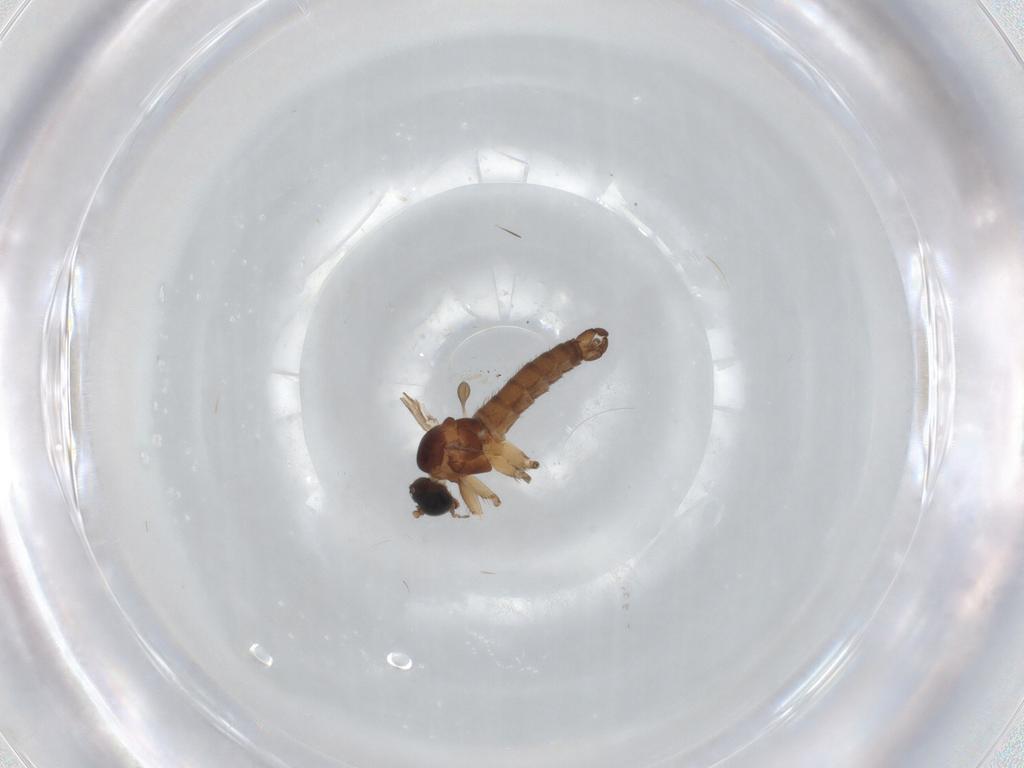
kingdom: Animalia
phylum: Arthropoda
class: Insecta
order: Diptera
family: Sciaridae
